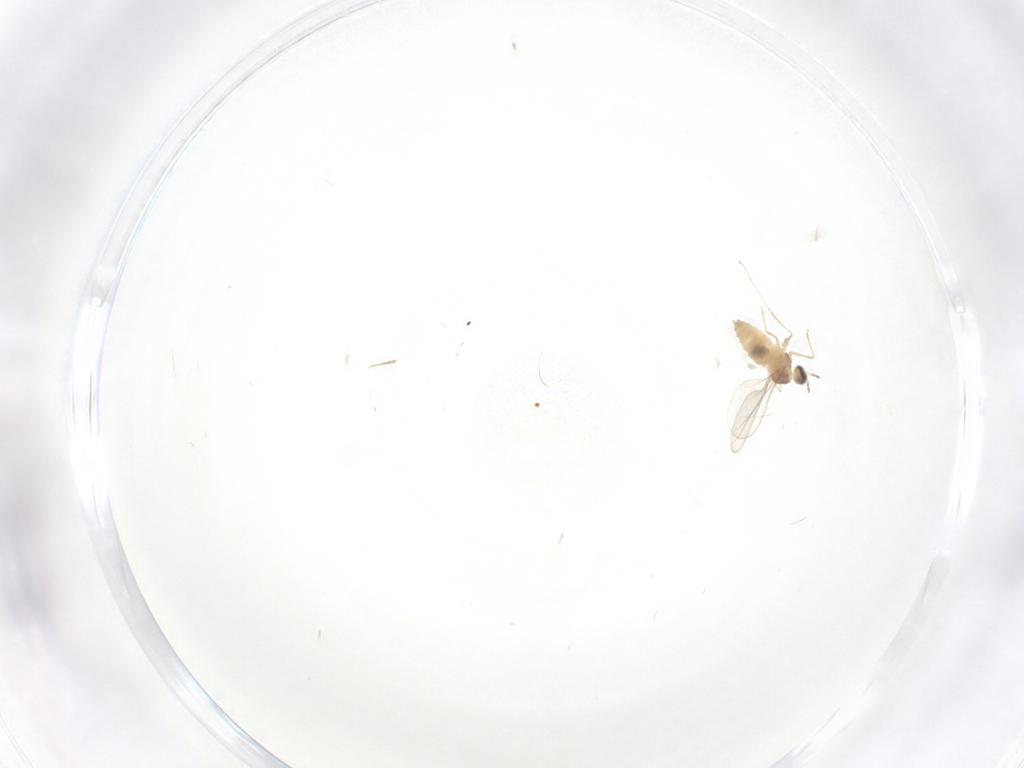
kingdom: Animalia
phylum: Arthropoda
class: Insecta
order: Diptera
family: Cecidomyiidae
